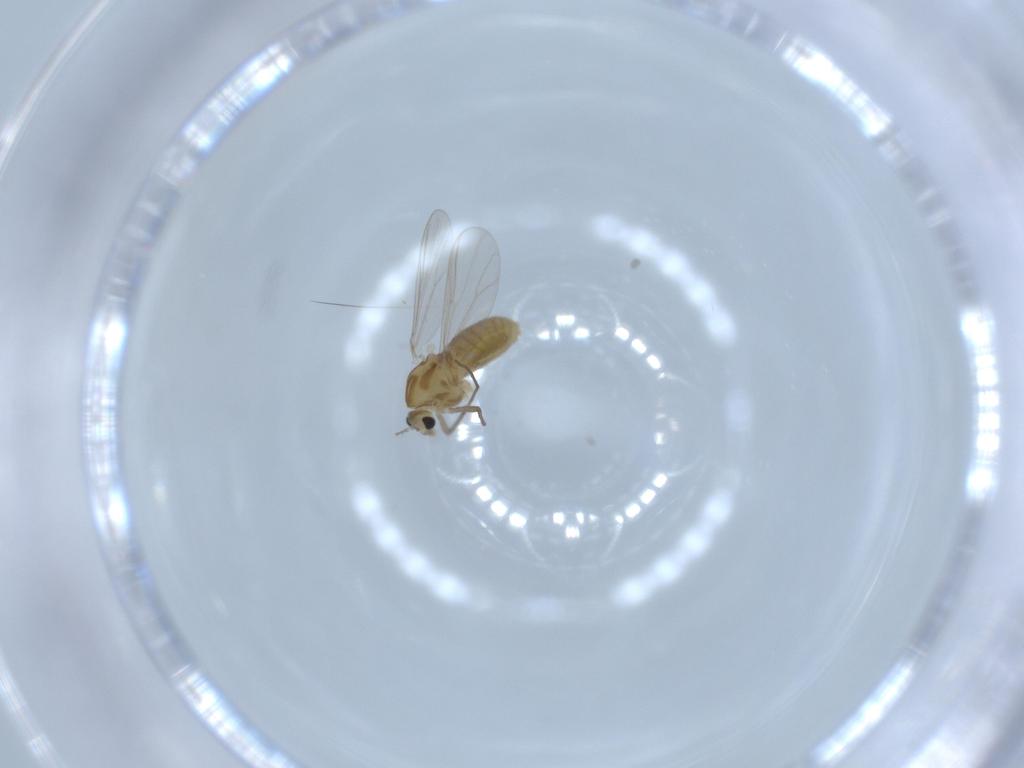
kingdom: Animalia
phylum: Arthropoda
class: Insecta
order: Diptera
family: Chironomidae
